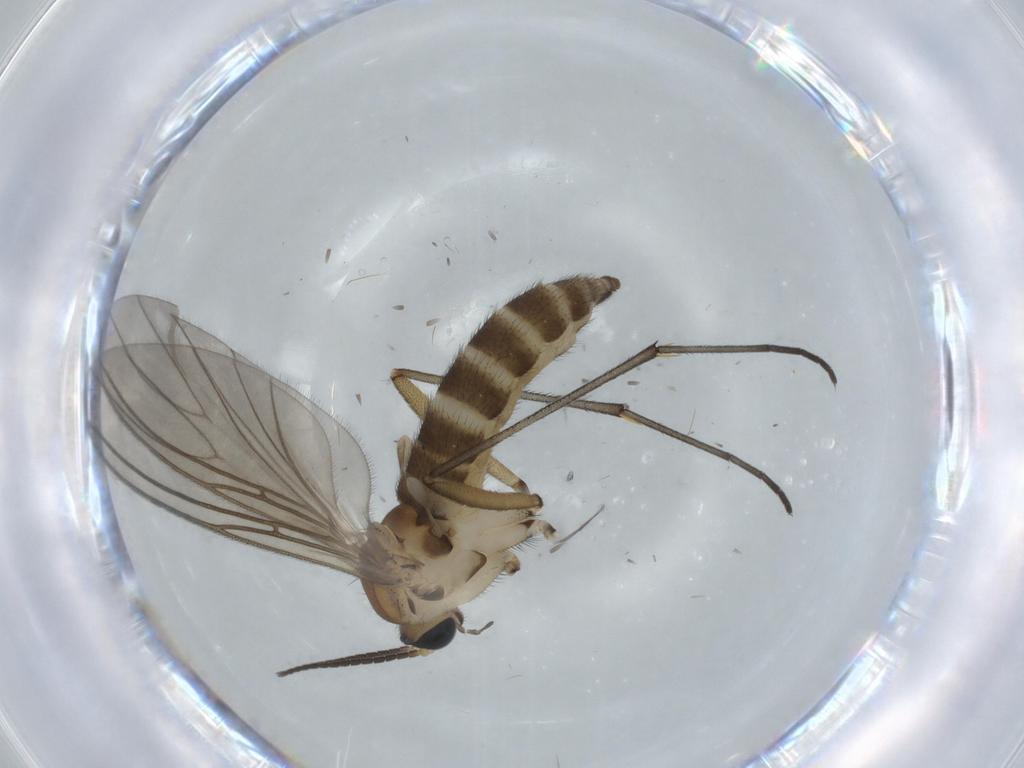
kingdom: Animalia
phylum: Arthropoda
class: Insecta
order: Diptera
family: Sciaridae
